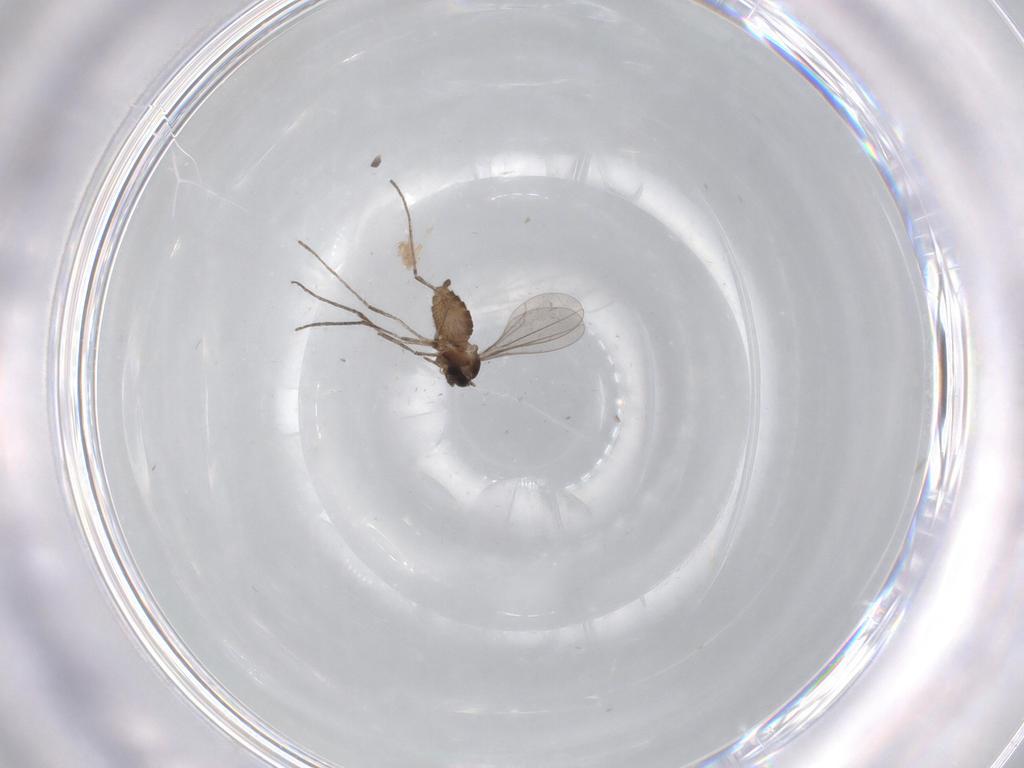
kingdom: Animalia
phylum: Arthropoda
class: Insecta
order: Diptera
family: Cecidomyiidae
